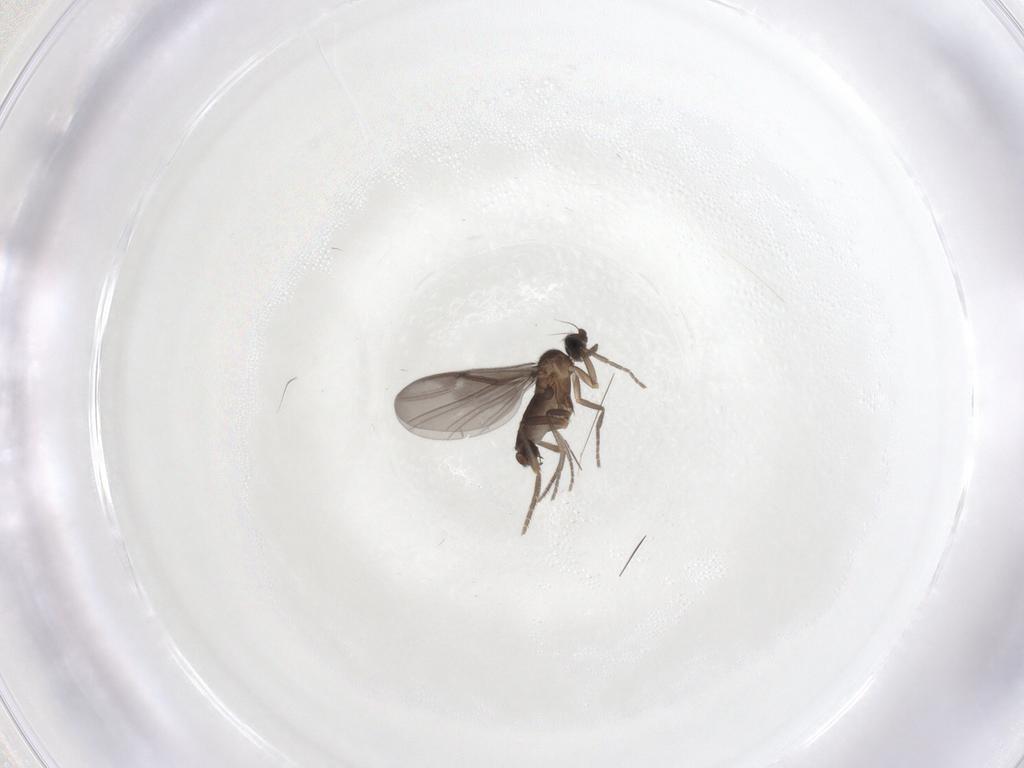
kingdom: Animalia
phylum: Arthropoda
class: Insecta
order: Diptera
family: Phoridae
